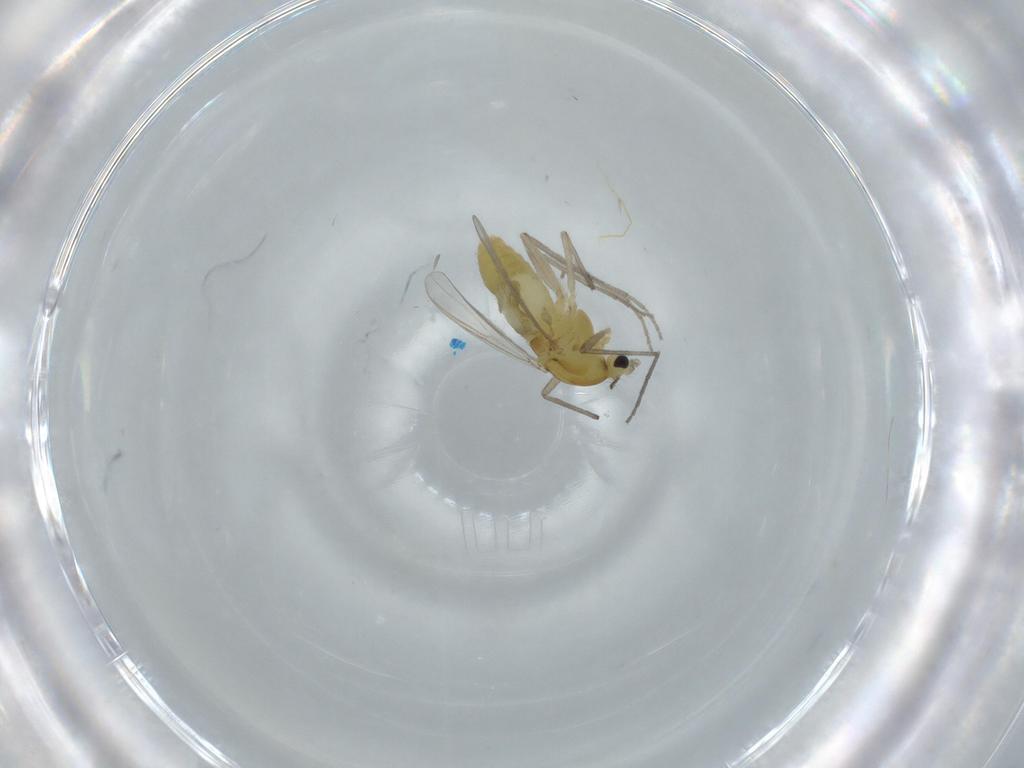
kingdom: Animalia
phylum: Arthropoda
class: Insecta
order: Diptera
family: Chironomidae
